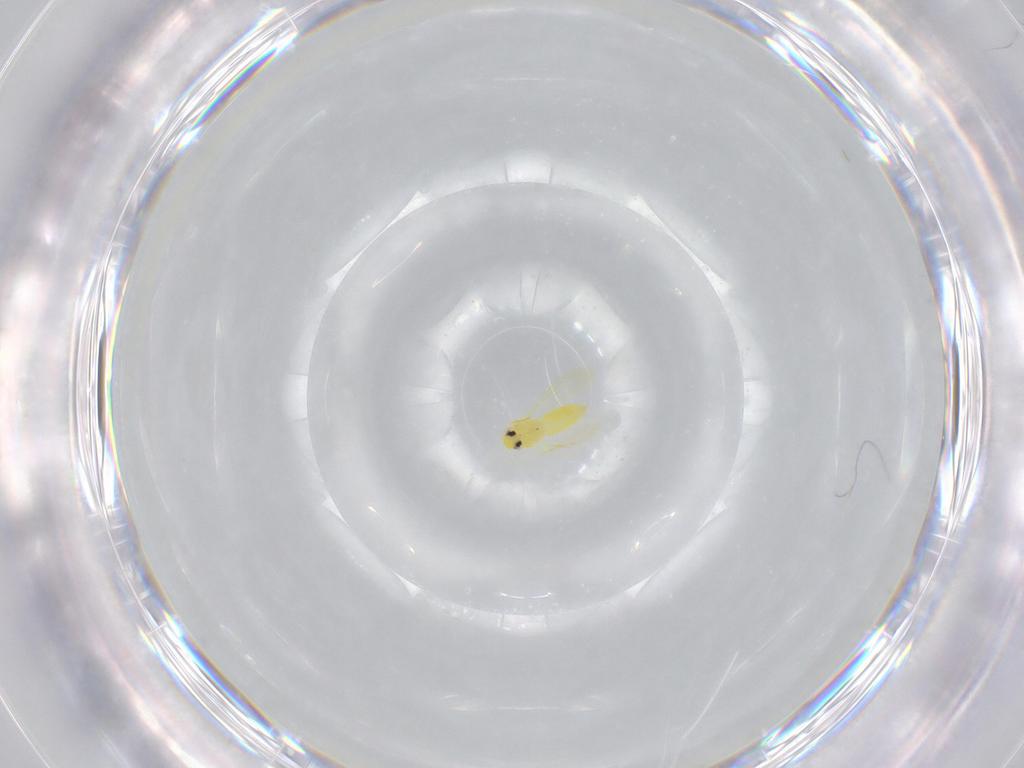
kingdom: Animalia
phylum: Arthropoda
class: Insecta
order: Hemiptera
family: Aleyrodidae
